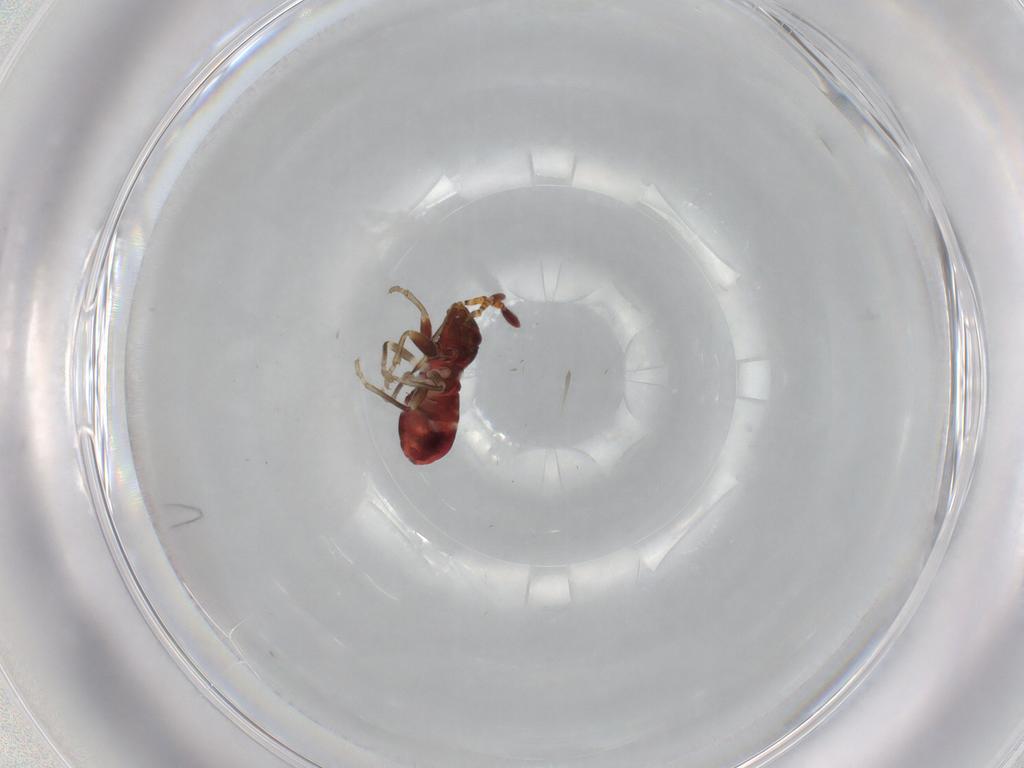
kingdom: Animalia
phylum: Arthropoda
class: Insecta
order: Hemiptera
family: Rhyparochromidae
